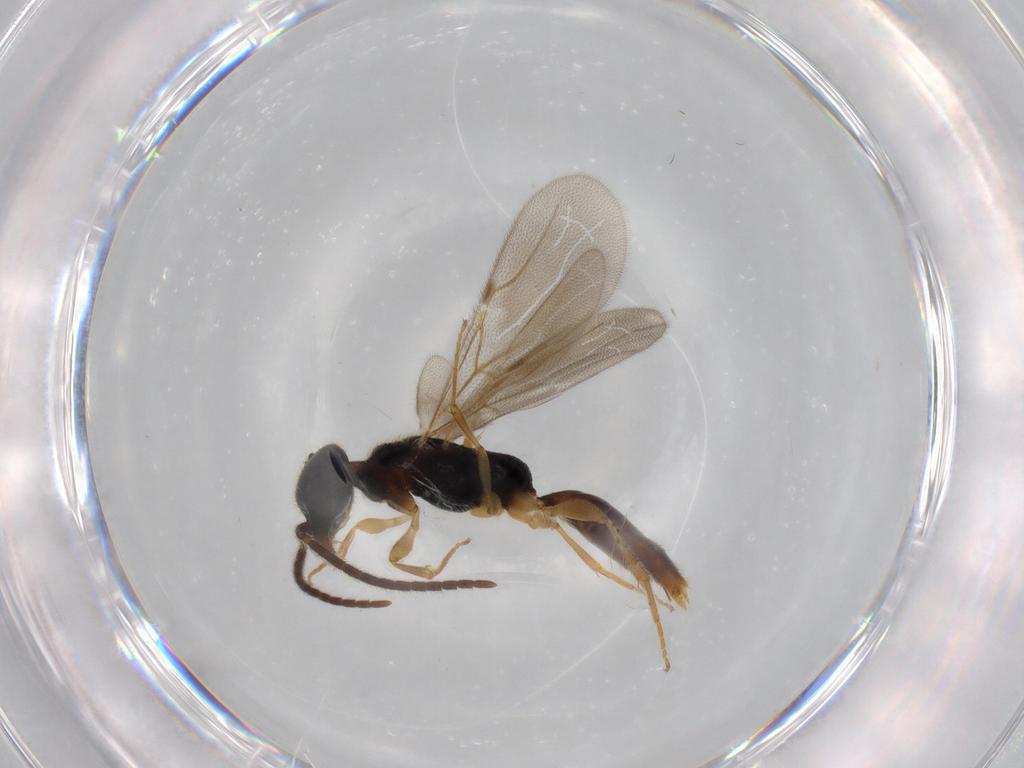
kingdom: Animalia
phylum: Arthropoda
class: Insecta
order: Hymenoptera
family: Bethylidae
